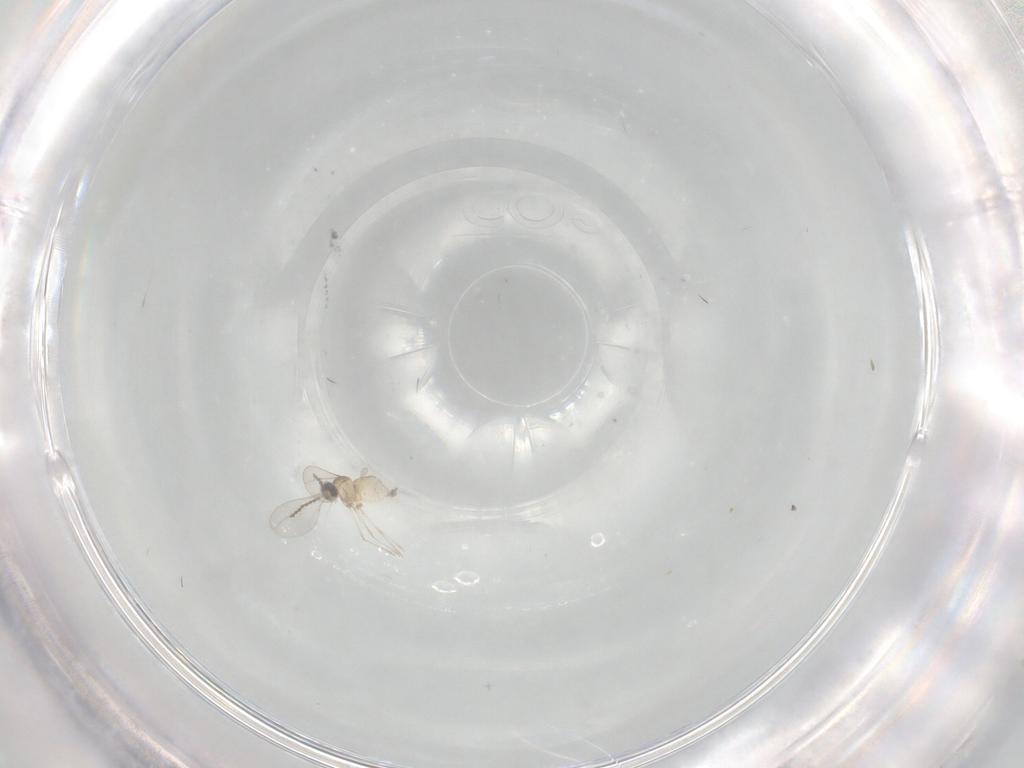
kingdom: Animalia
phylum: Arthropoda
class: Insecta
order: Diptera
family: Cecidomyiidae
